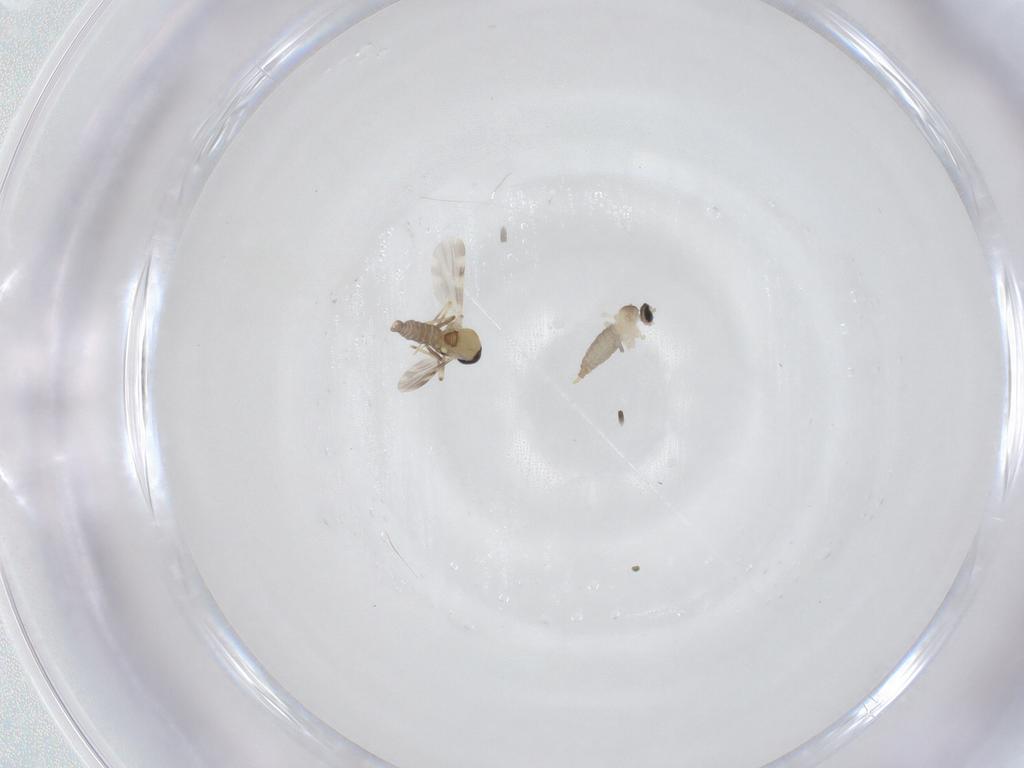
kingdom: Animalia
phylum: Arthropoda
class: Insecta
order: Diptera
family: Ceratopogonidae
